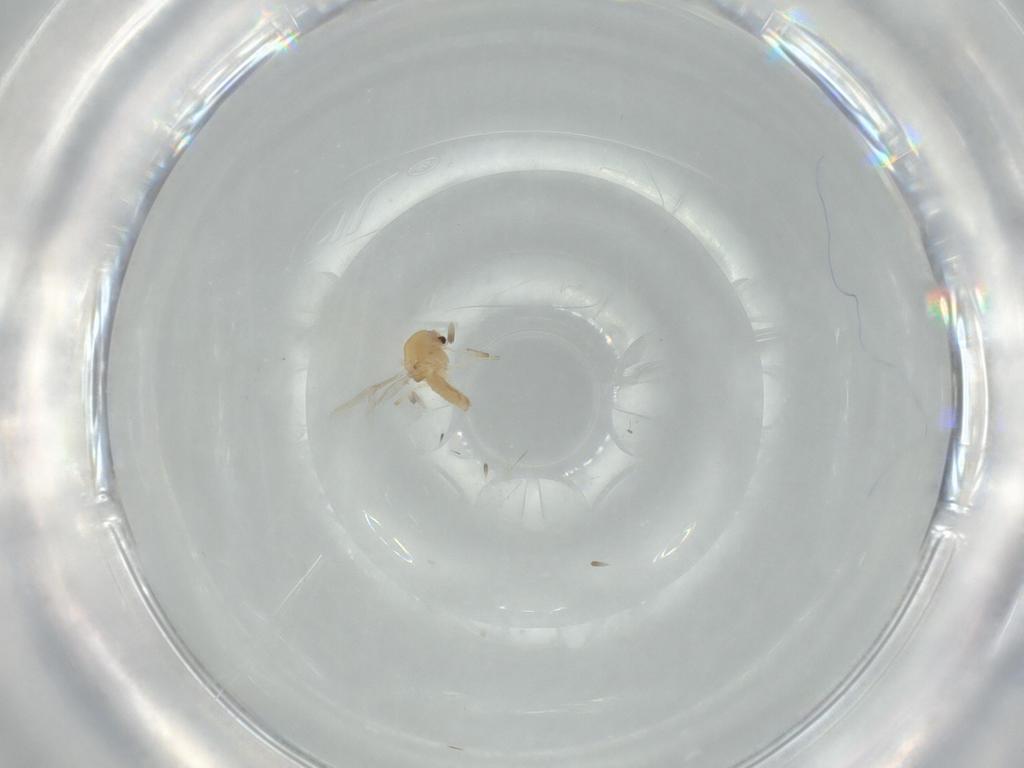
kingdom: Animalia
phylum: Arthropoda
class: Insecta
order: Diptera
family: Chironomidae
